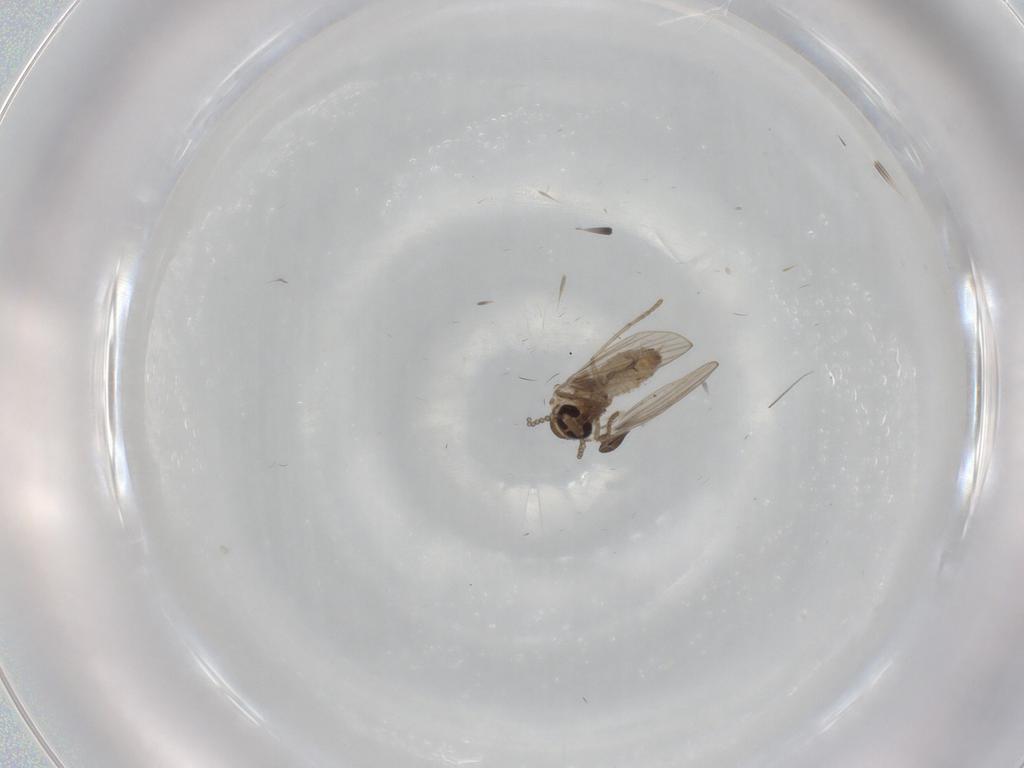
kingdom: Animalia
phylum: Arthropoda
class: Insecta
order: Diptera
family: Psychodidae
